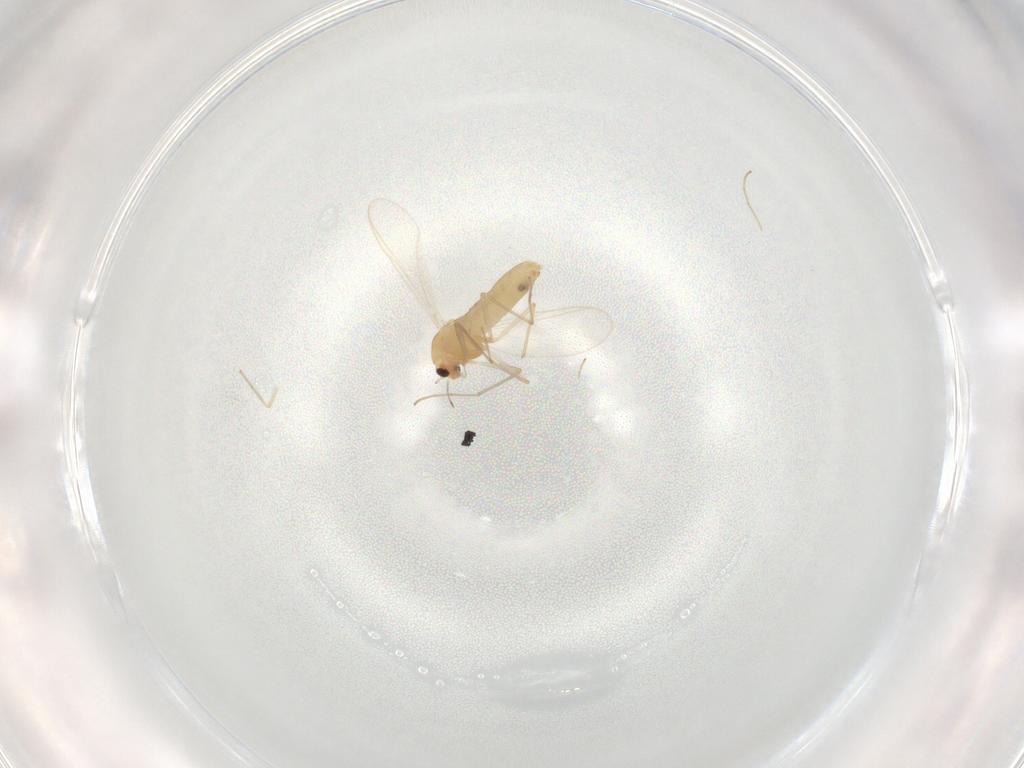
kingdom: Animalia
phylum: Arthropoda
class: Insecta
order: Diptera
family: Chironomidae
